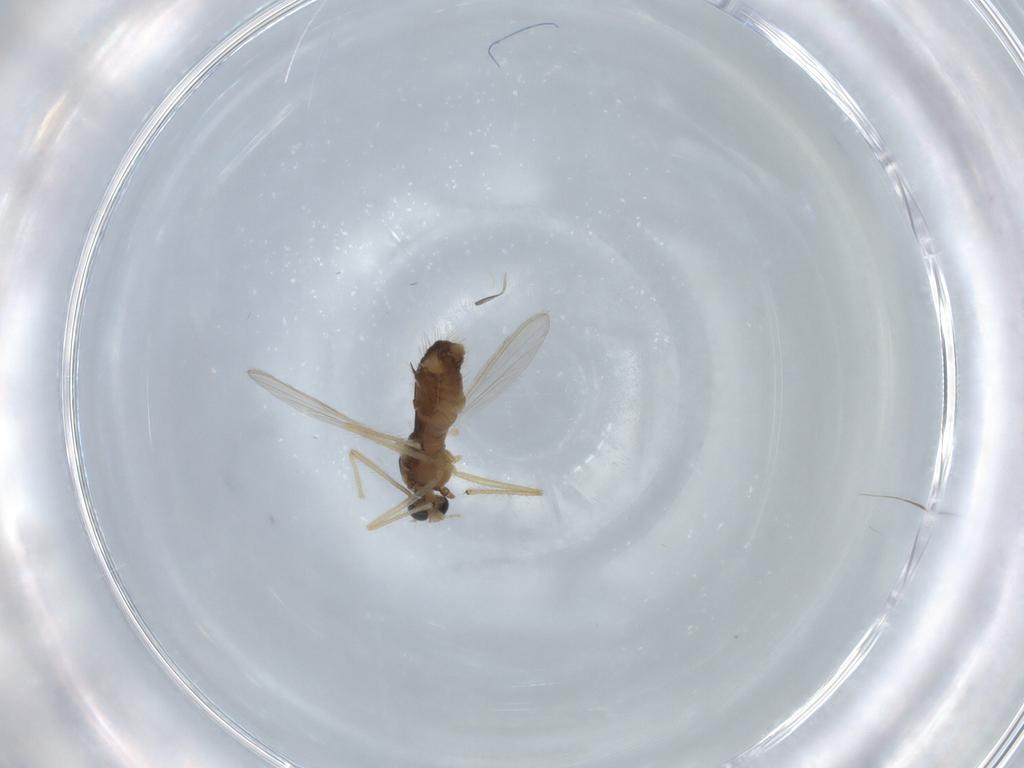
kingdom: Animalia
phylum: Arthropoda
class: Insecta
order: Diptera
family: Chironomidae
